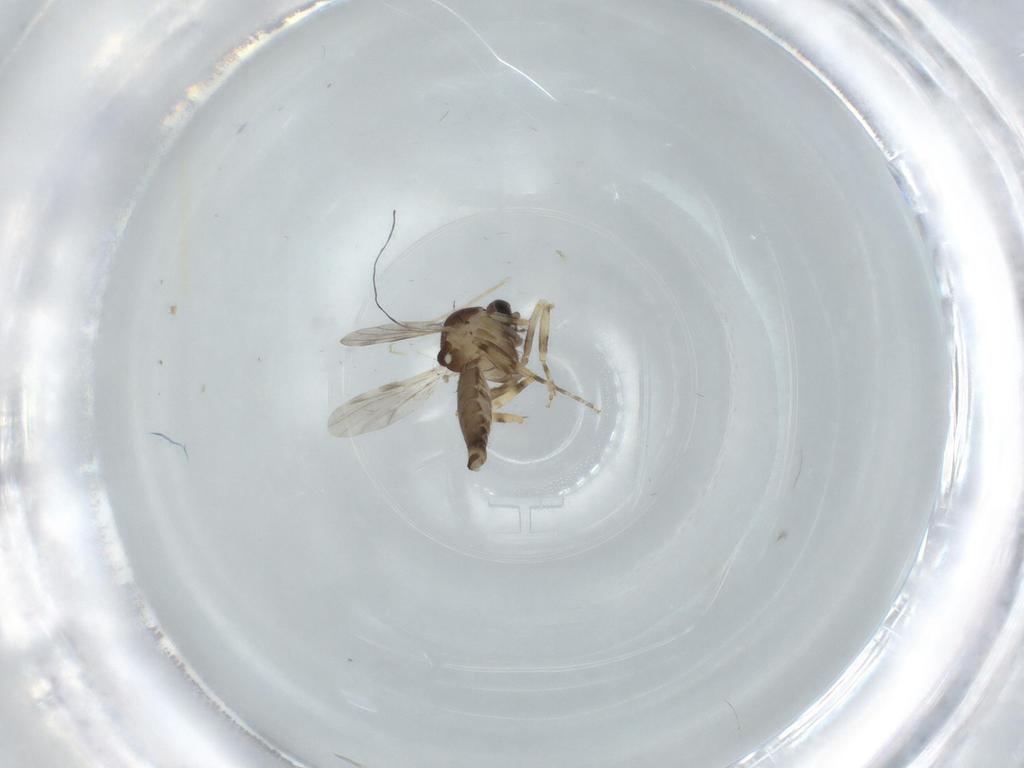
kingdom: Animalia
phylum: Arthropoda
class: Insecta
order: Diptera
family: Ceratopogonidae
